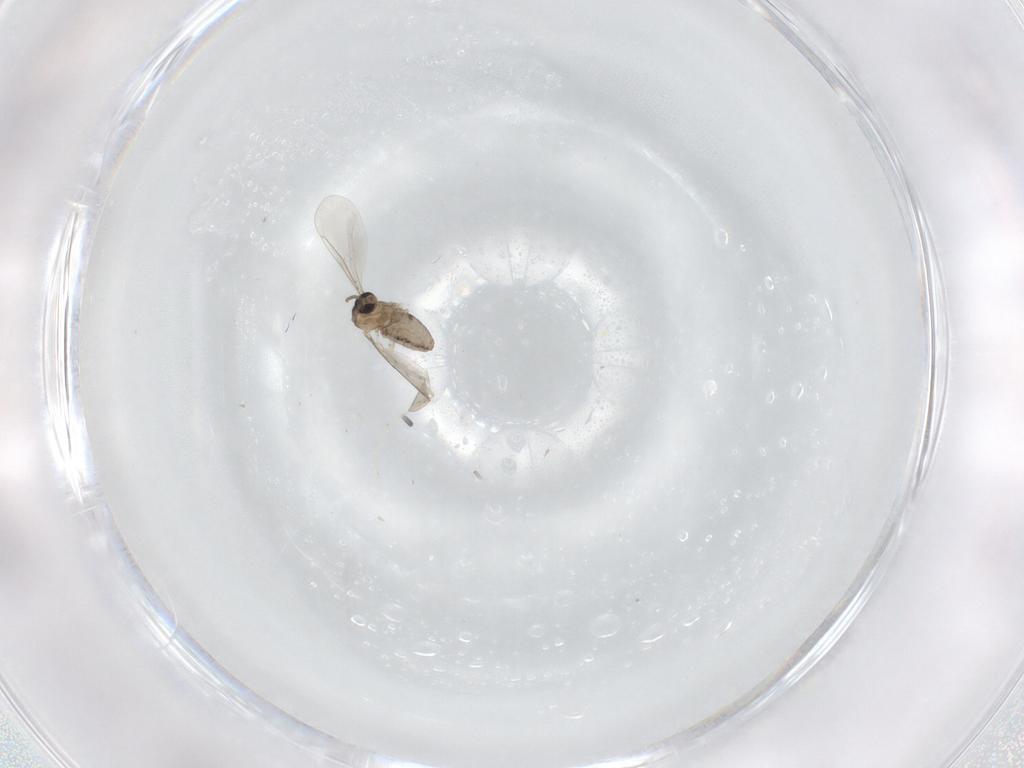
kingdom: Animalia
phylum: Arthropoda
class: Insecta
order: Diptera
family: Cecidomyiidae
